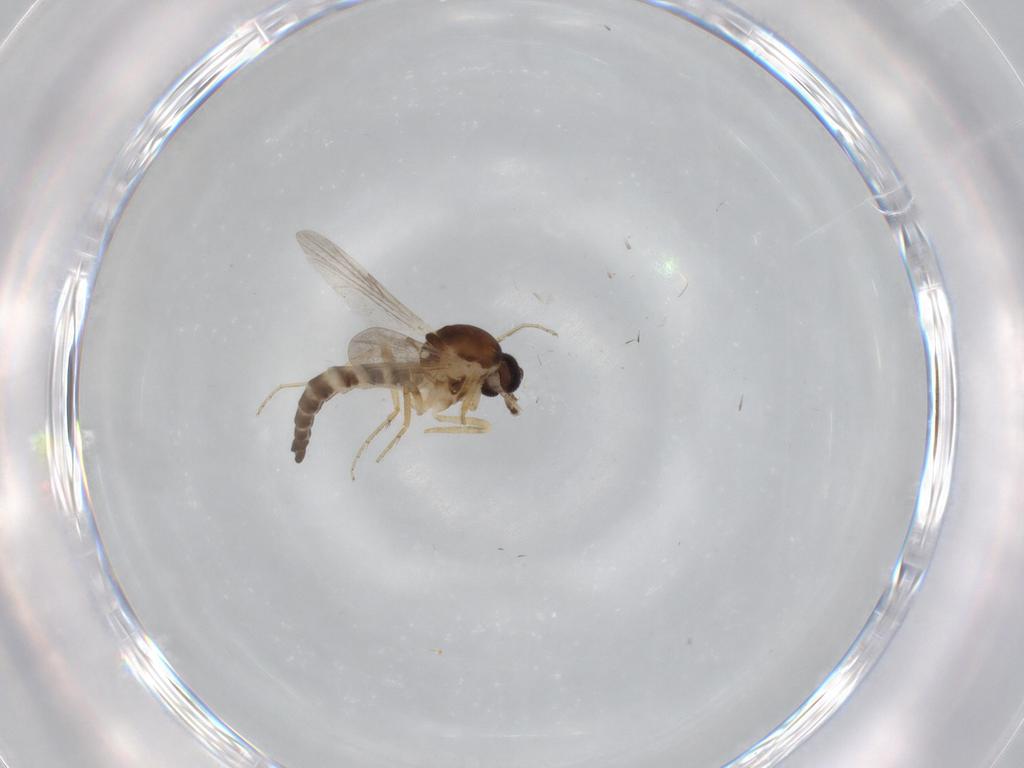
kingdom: Animalia
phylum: Arthropoda
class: Insecta
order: Diptera
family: Ceratopogonidae
